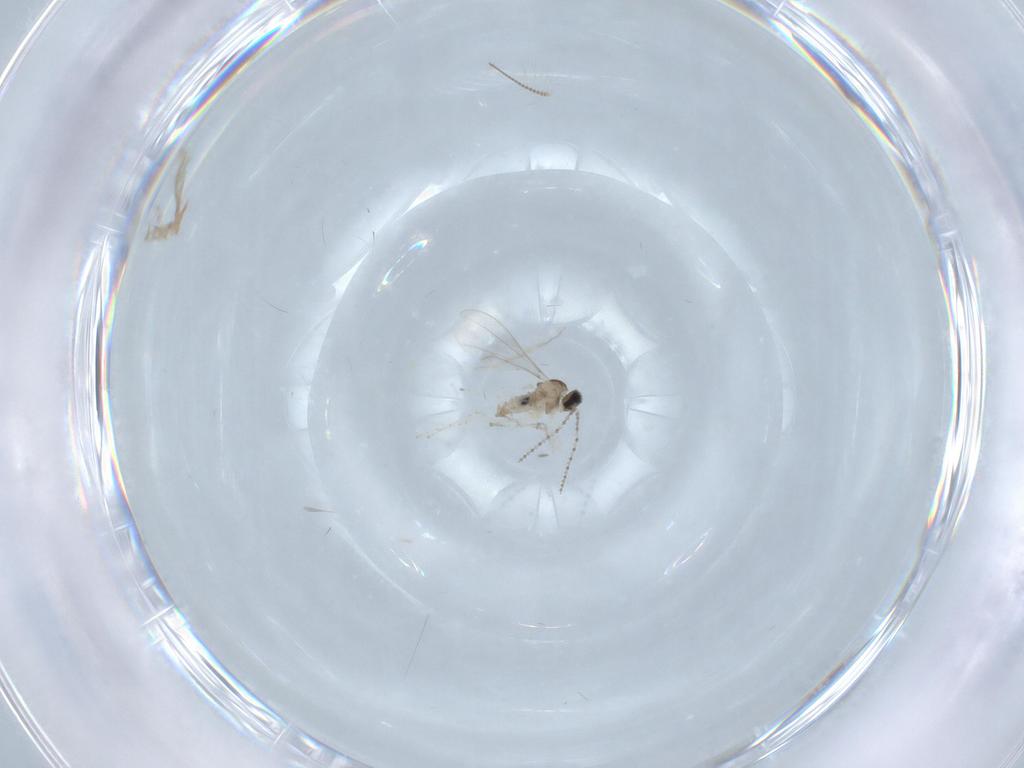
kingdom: Animalia
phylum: Arthropoda
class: Insecta
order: Diptera
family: Cecidomyiidae
